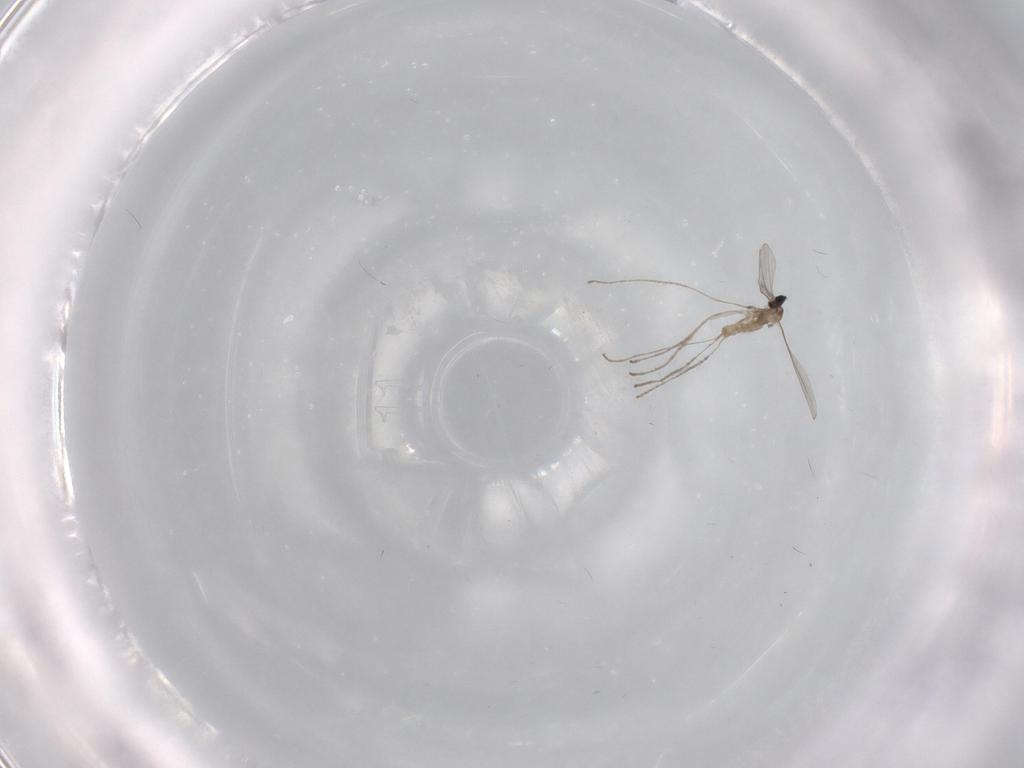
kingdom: Animalia
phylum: Arthropoda
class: Insecta
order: Diptera
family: Cecidomyiidae
